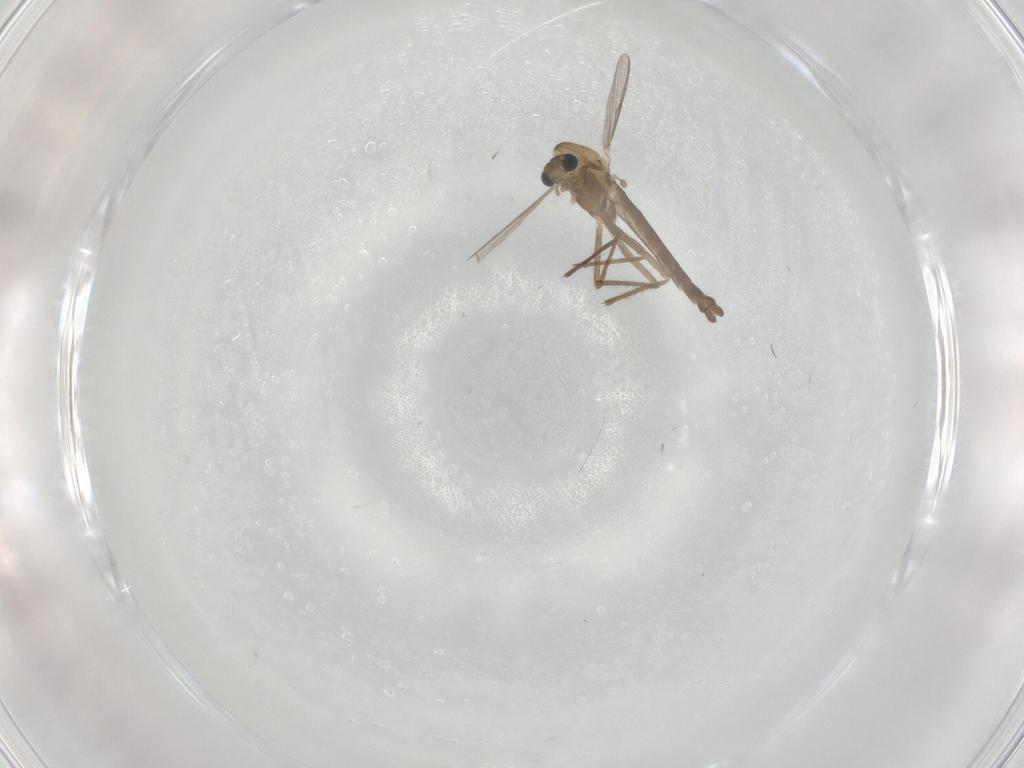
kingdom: Animalia
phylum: Arthropoda
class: Insecta
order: Diptera
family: Chironomidae
